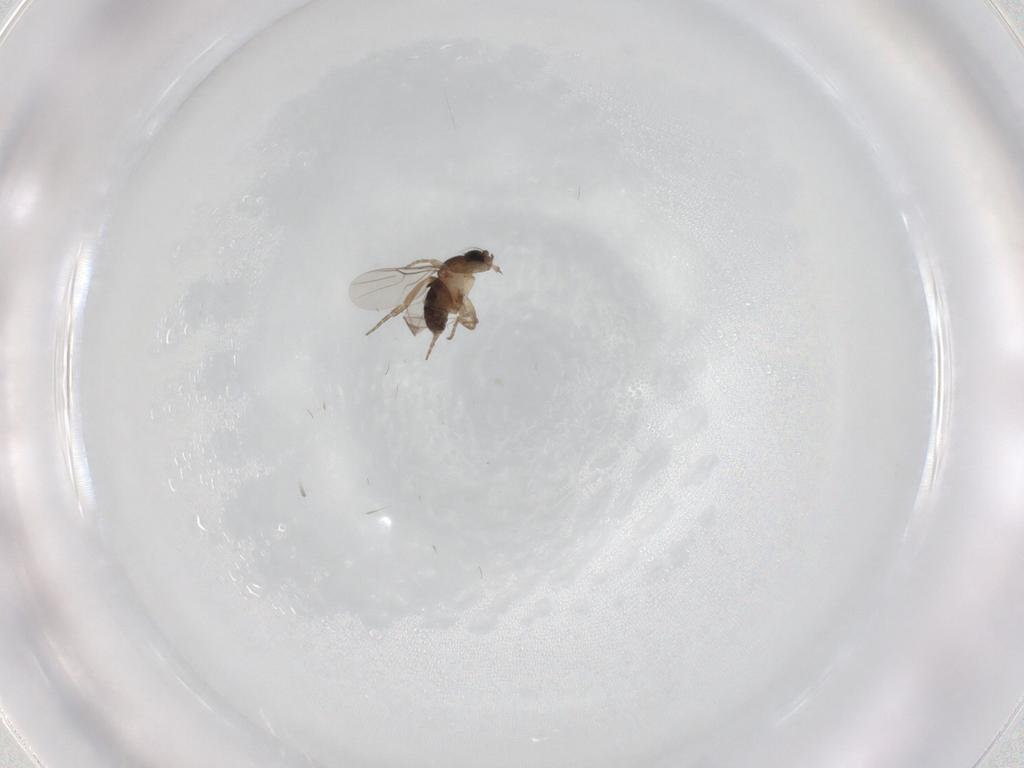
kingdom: Animalia
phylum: Arthropoda
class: Insecta
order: Diptera
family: Phoridae
